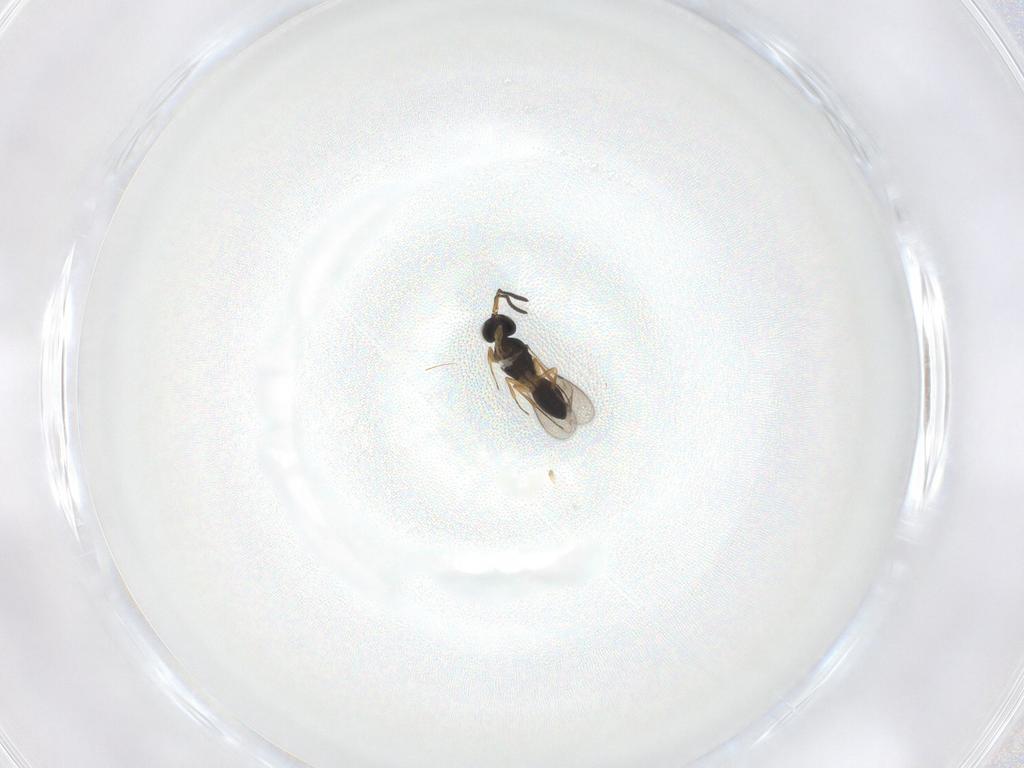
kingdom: Animalia
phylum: Arthropoda
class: Insecta
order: Hymenoptera
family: Scelionidae
